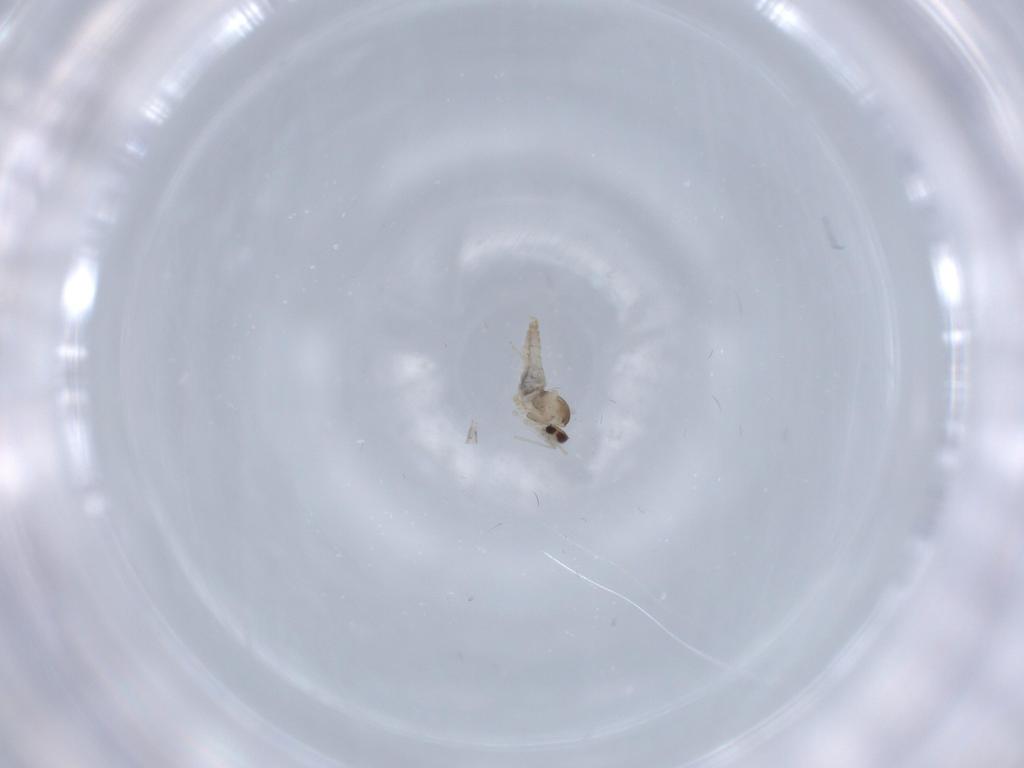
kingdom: Animalia
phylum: Arthropoda
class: Insecta
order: Diptera
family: Cecidomyiidae
